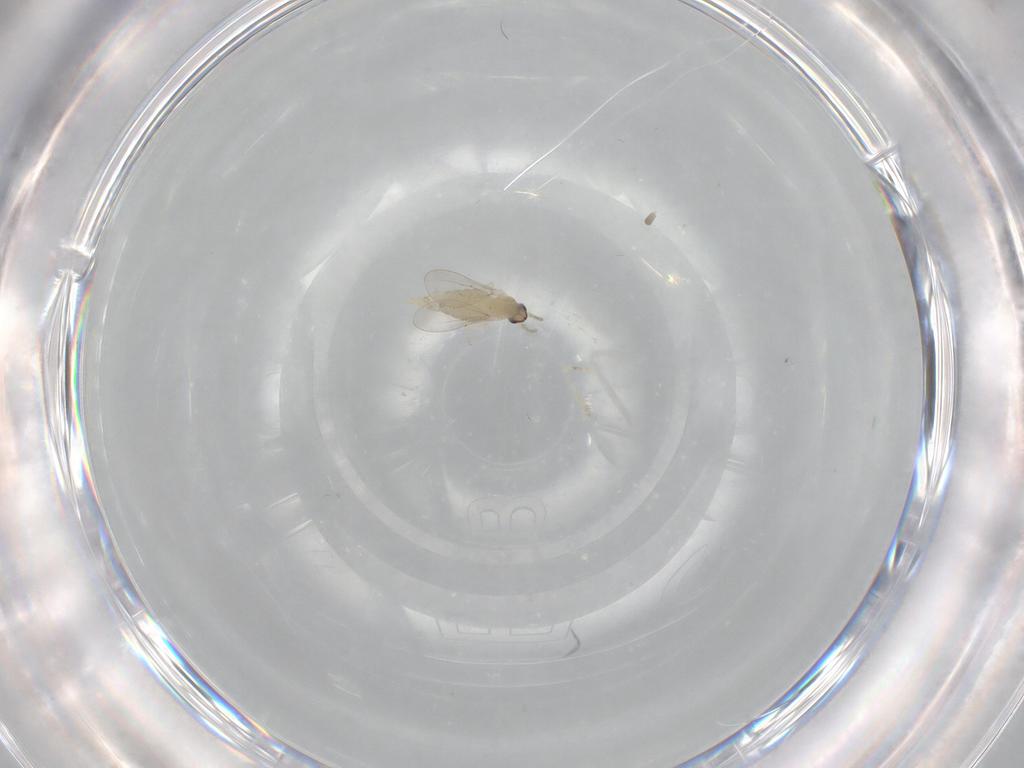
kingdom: Animalia
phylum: Arthropoda
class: Insecta
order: Diptera
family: Cecidomyiidae
